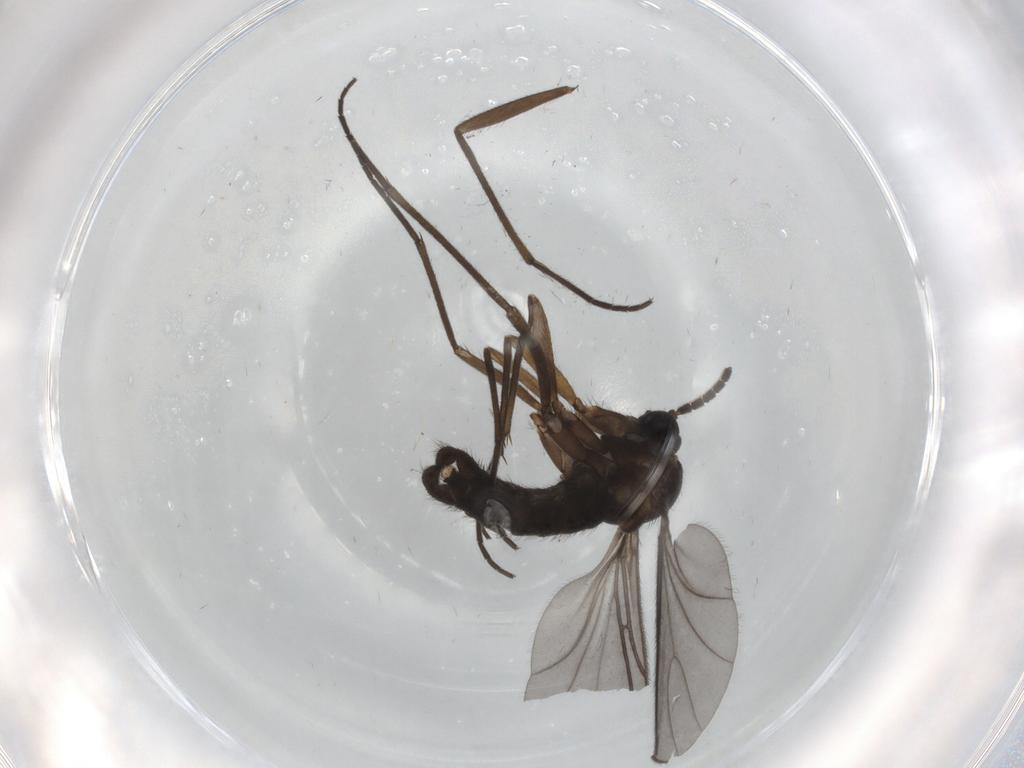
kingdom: Animalia
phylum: Arthropoda
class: Insecta
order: Diptera
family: Sciaridae
